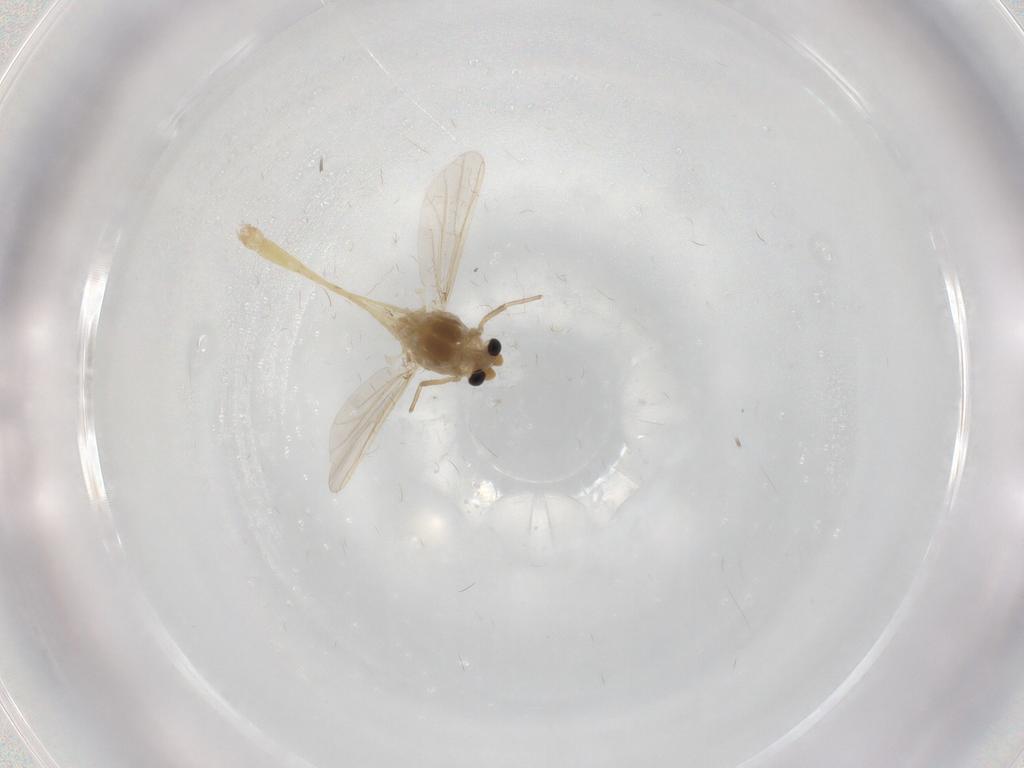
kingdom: Animalia
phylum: Arthropoda
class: Insecta
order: Diptera
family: Chironomidae
